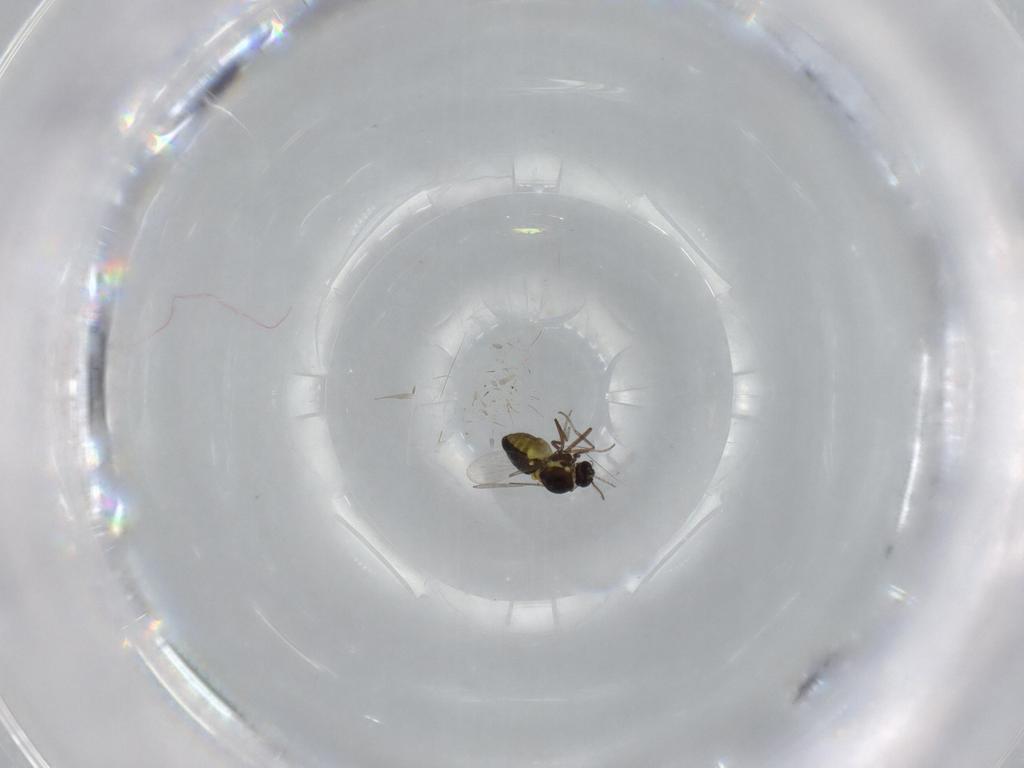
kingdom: Animalia
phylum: Arthropoda
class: Insecta
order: Diptera
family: Ceratopogonidae
